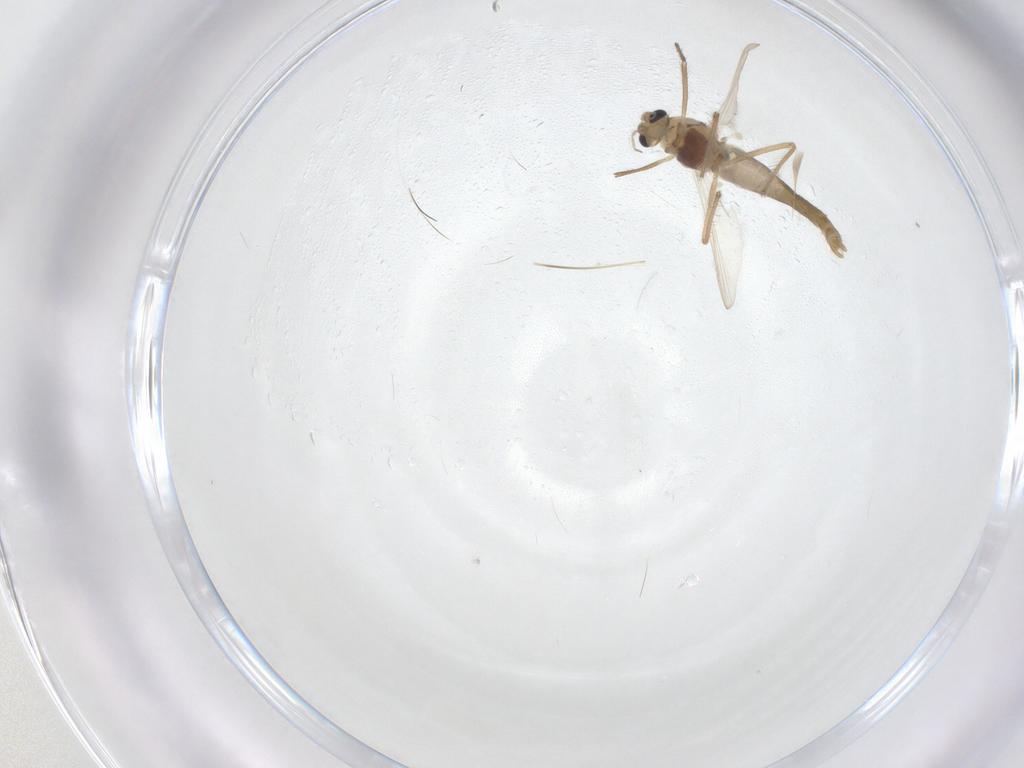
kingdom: Animalia
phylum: Arthropoda
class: Insecta
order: Diptera
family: Chironomidae
